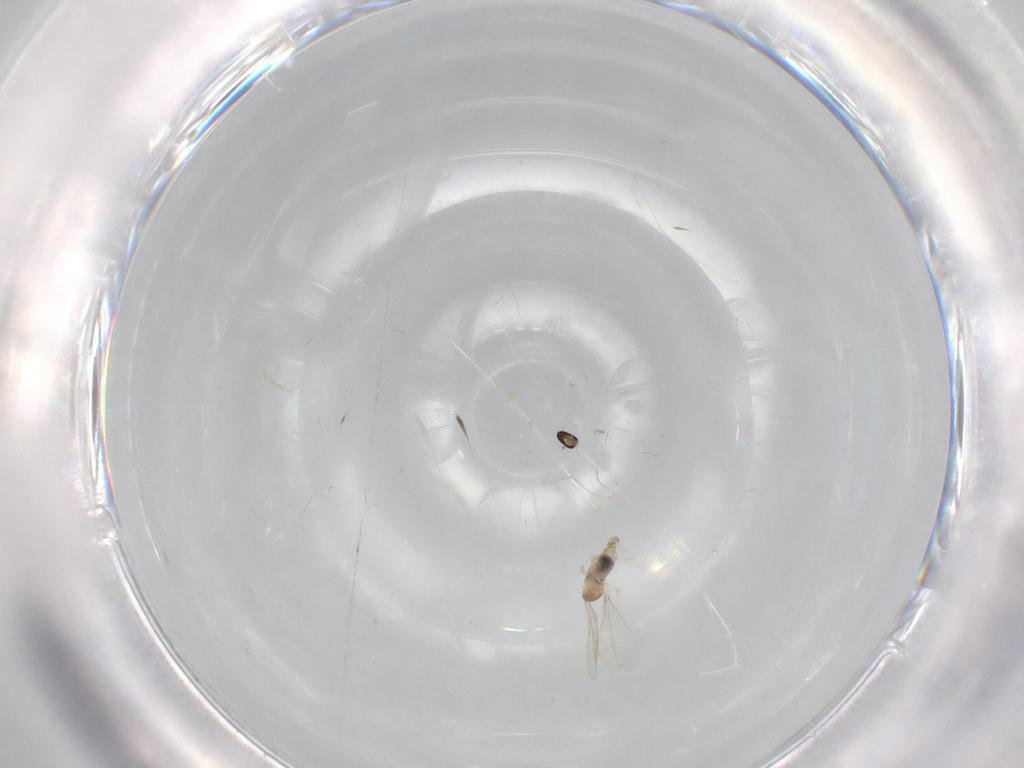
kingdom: Animalia
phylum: Arthropoda
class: Insecta
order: Diptera
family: Cecidomyiidae
